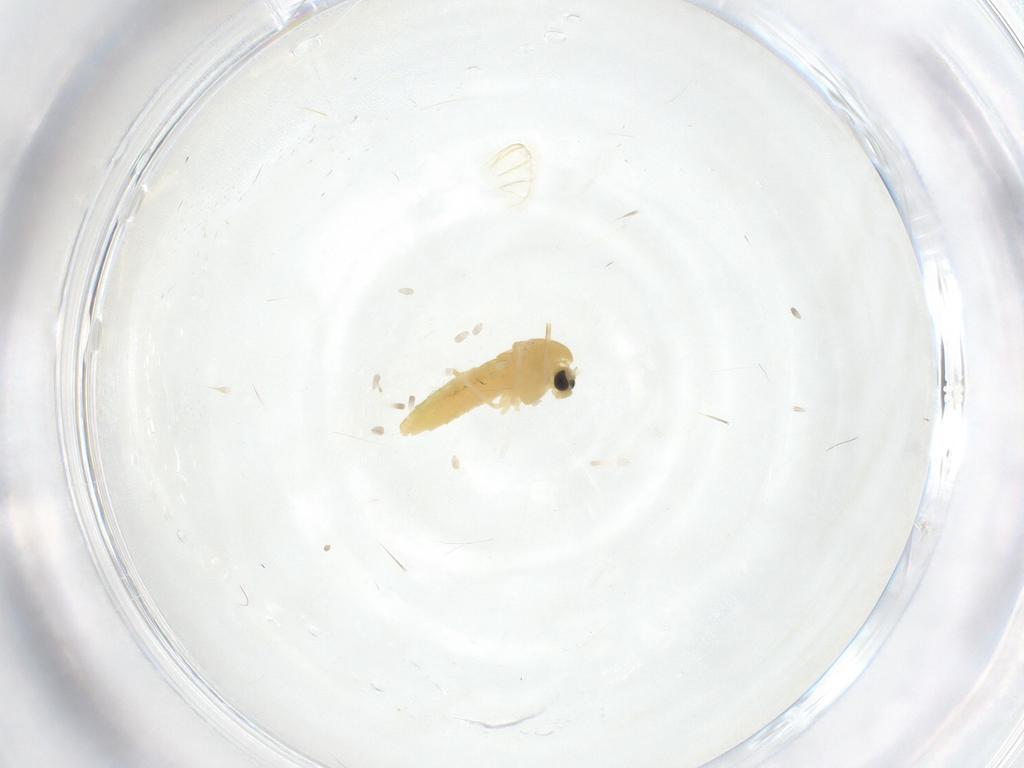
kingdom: Animalia
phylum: Arthropoda
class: Insecta
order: Diptera
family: Chironomidae
